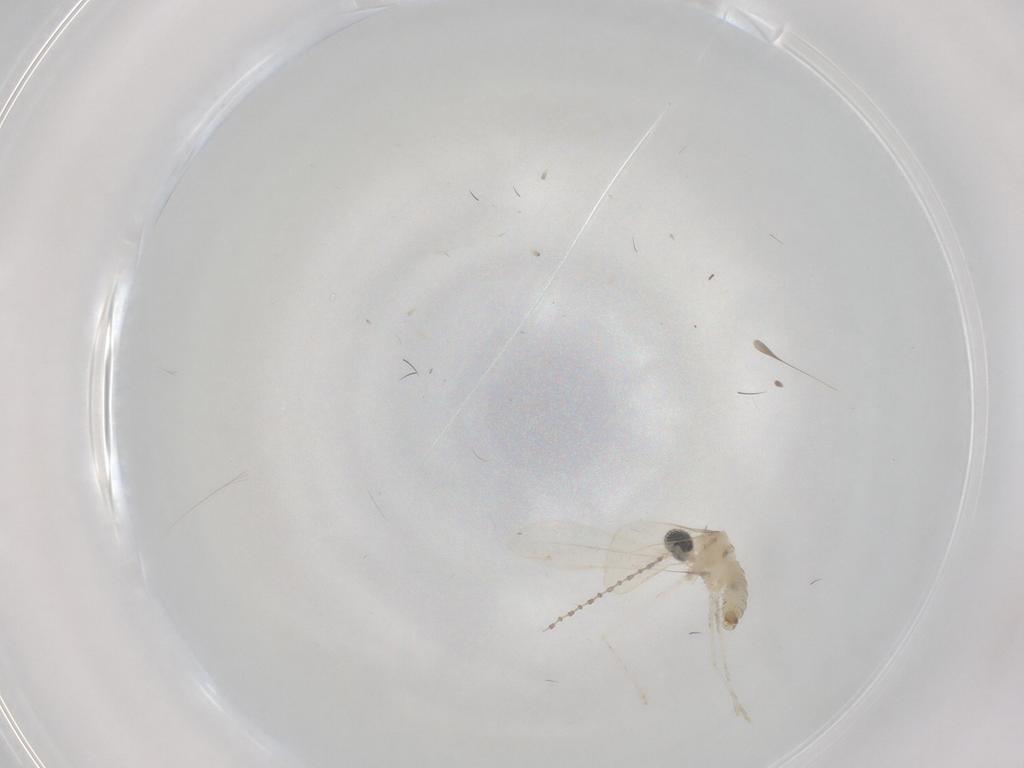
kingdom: Animalia
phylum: Arthropoda
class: Insecta
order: Diptera
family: Cecidomyiidae
